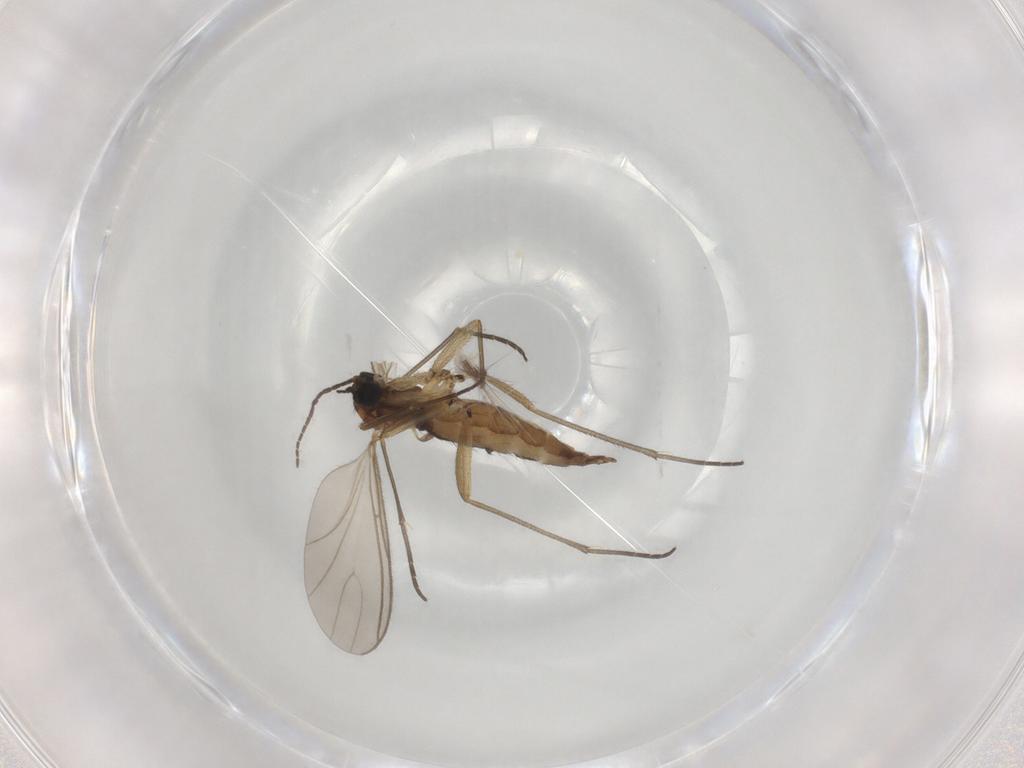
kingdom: Animalia
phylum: Arthropoda
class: Insecta
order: Diptera
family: Sciaridae
